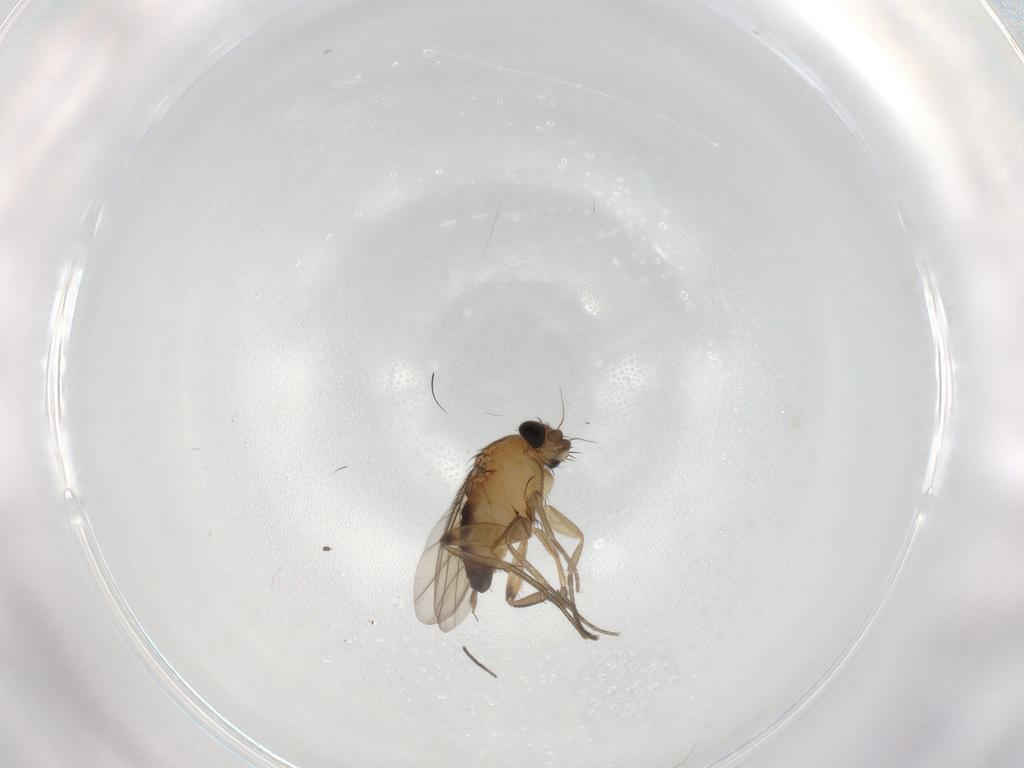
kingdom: Animalia
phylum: Arthropoda
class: Insecta
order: Diptera
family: Phoridae
